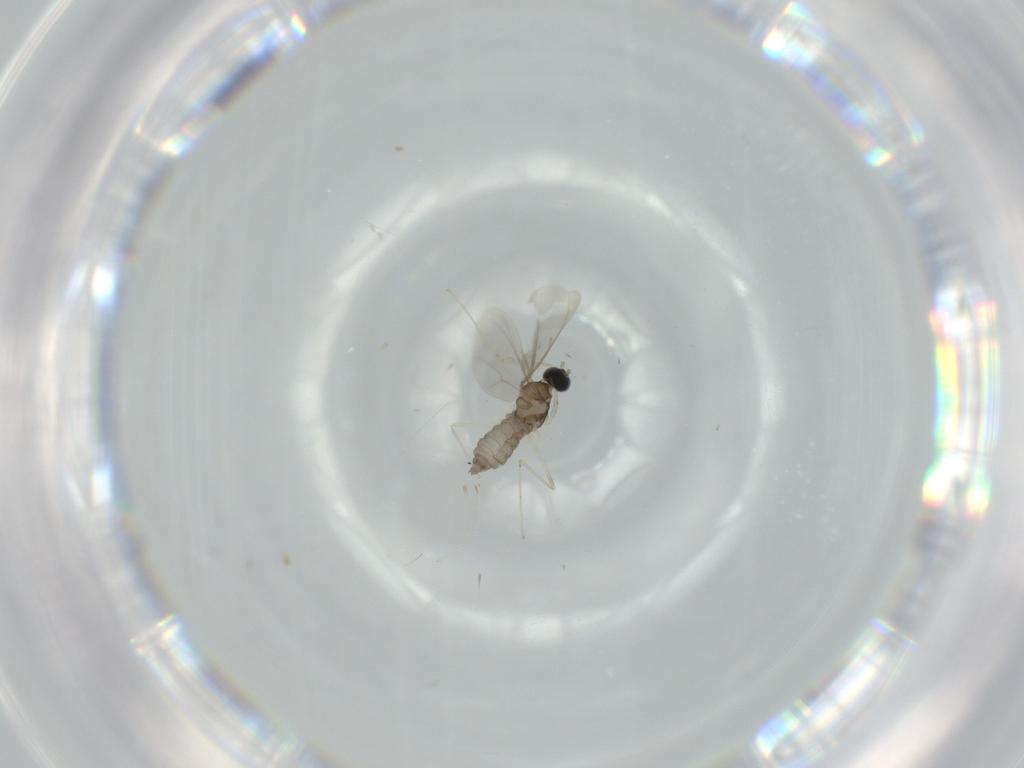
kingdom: Animalia
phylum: Arthropoda
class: Insecta
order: Diptera
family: Cecidomyiidae
